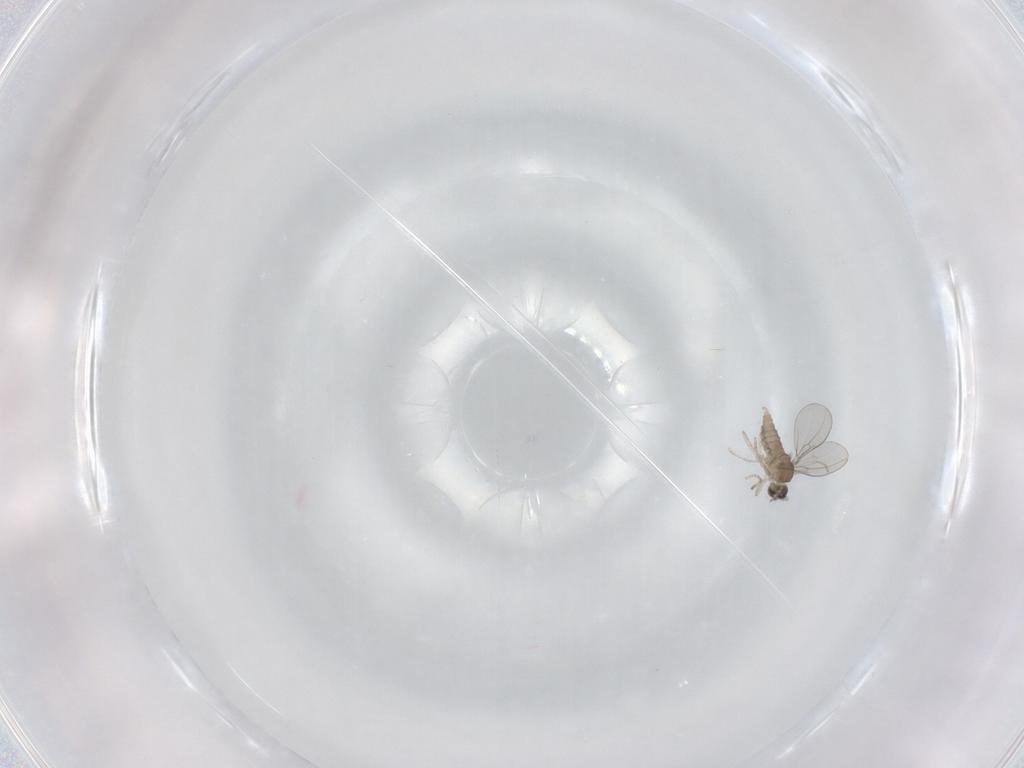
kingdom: Animalia
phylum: Arthropoda
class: Insecta
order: Diptera
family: Cecidomyiidae
